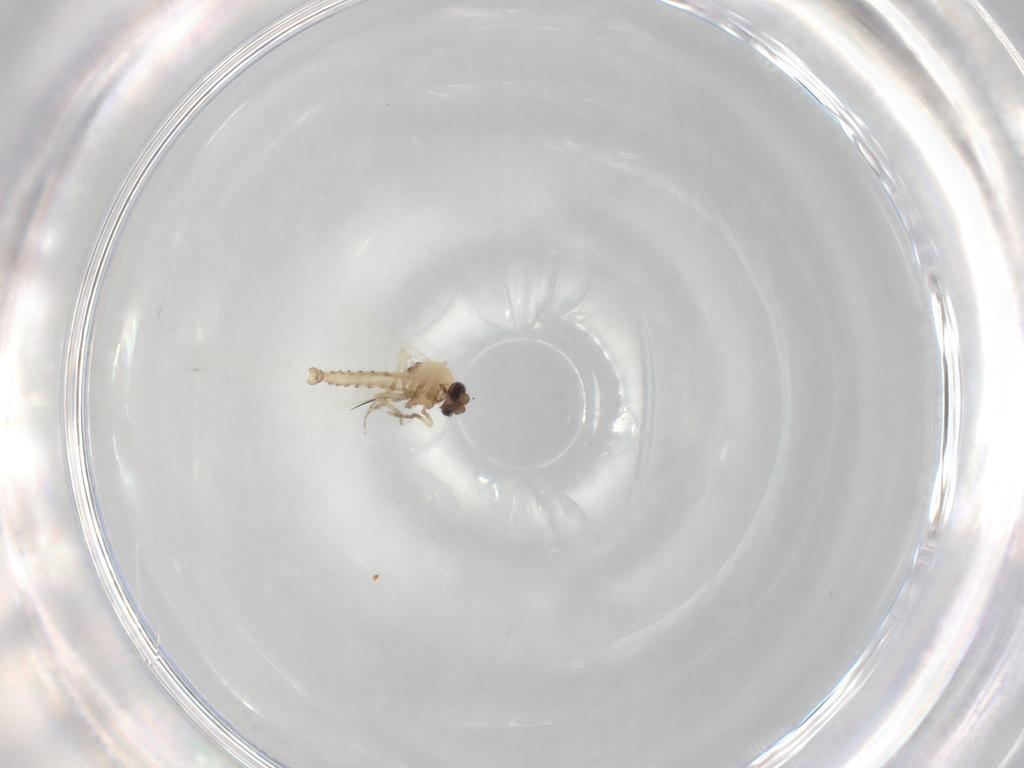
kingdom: Animalia
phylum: Arthropoda
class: Insecta
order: Diptera
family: Ceratopogonidae
